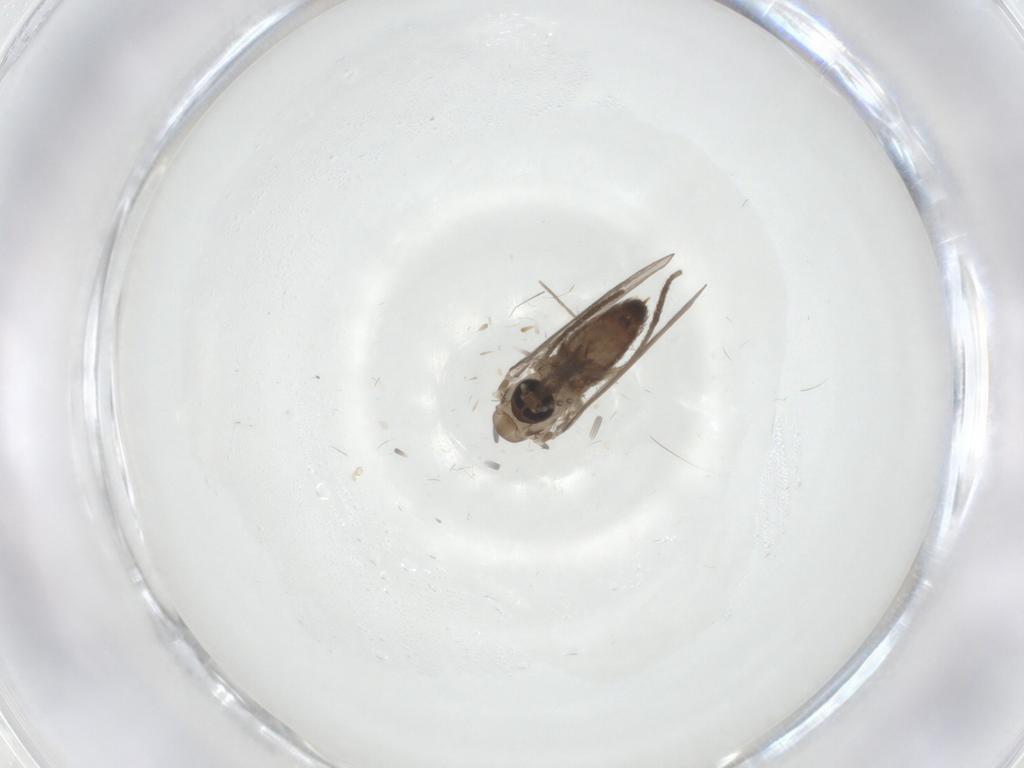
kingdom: Animalia
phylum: Arthropoda
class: Insecta
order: Diptera
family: Psychodidae
